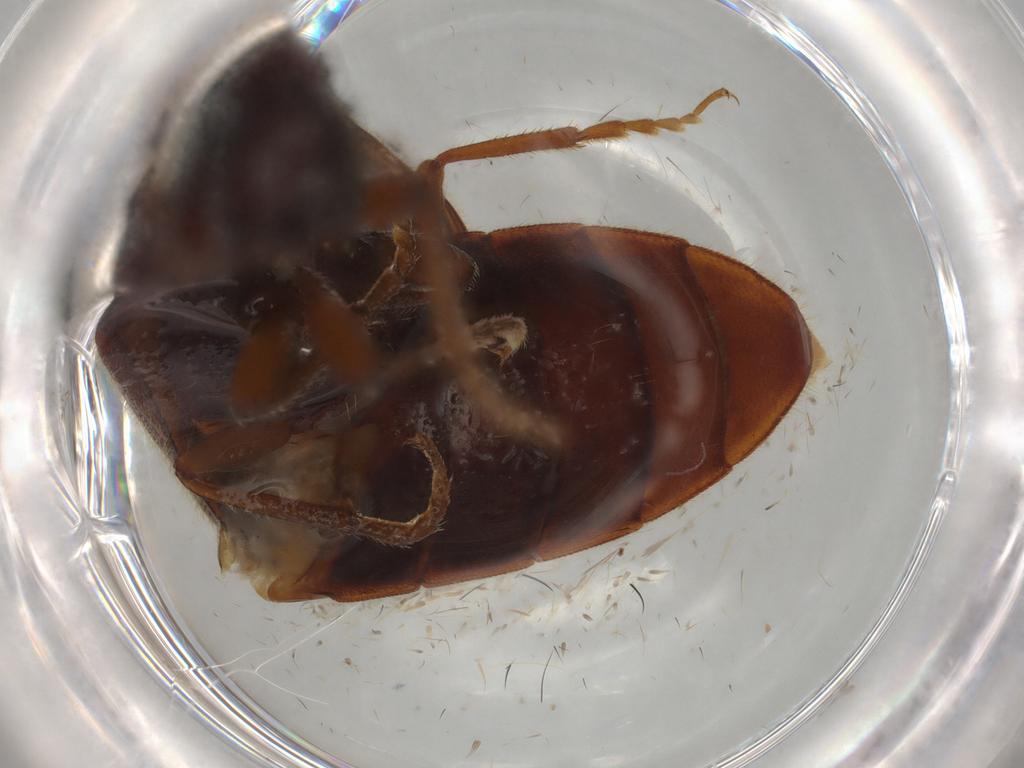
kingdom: Animalia
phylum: Arthropoda
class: Insecta
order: Coleoptera
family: Elateridae
